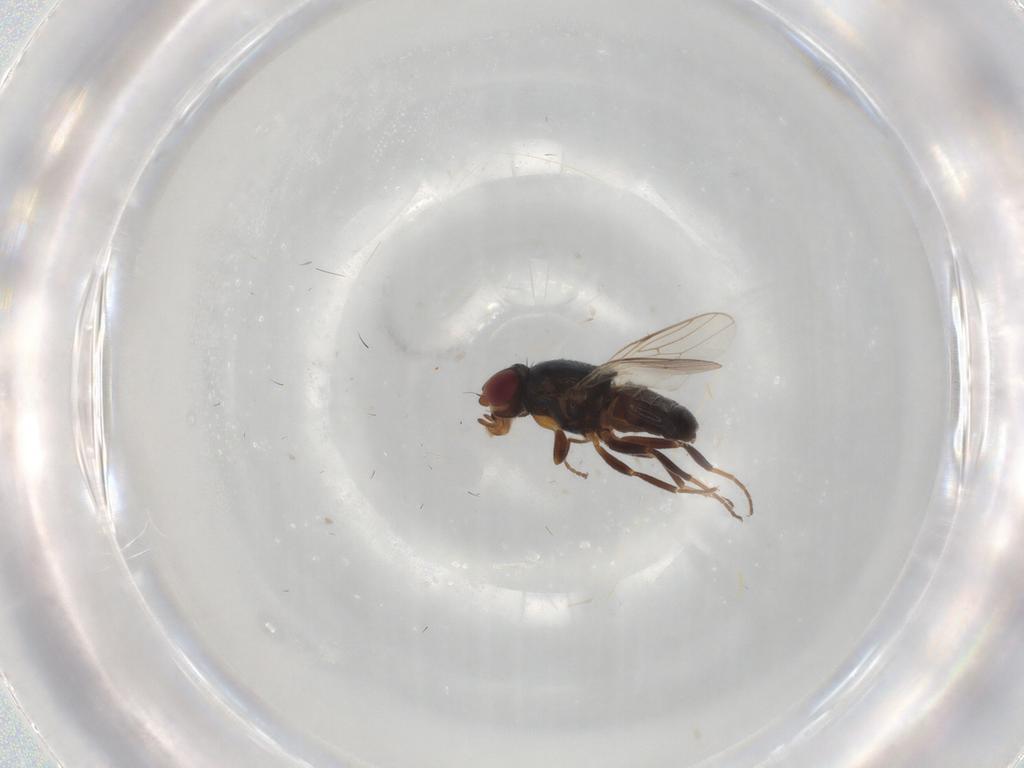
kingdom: Animalia
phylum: Arthropoda
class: Insecta
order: Diptera
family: Chloropidae
